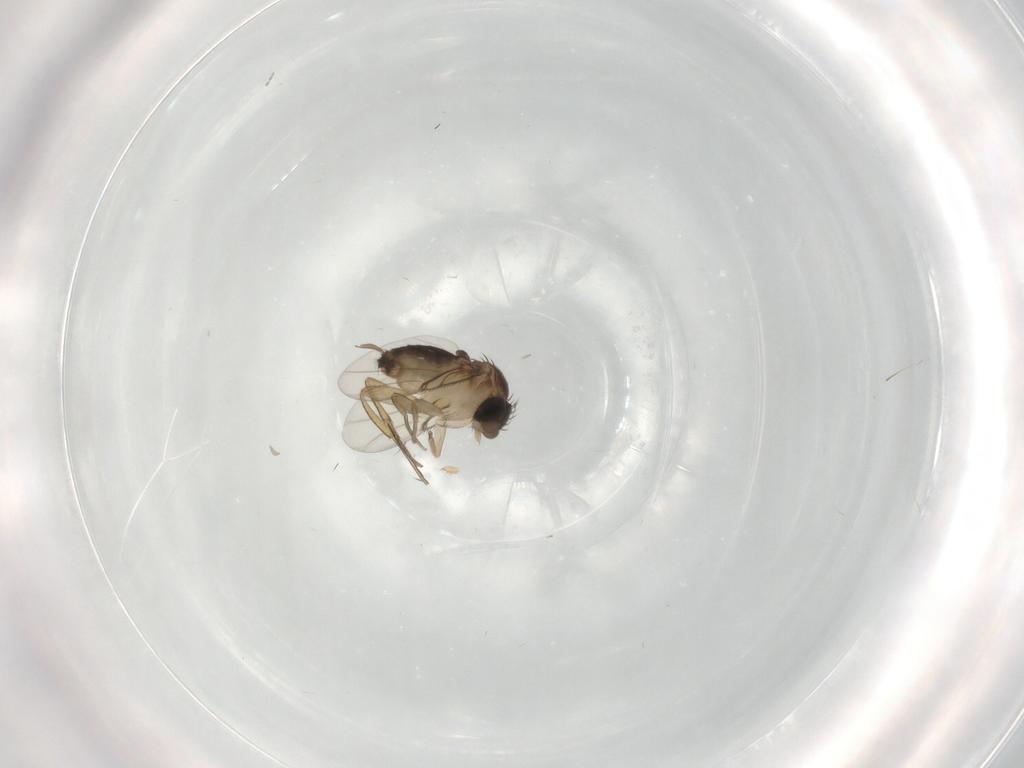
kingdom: Animalia
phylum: Arthropoda
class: Insecta
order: Diptera
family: Cecidomyiidae
